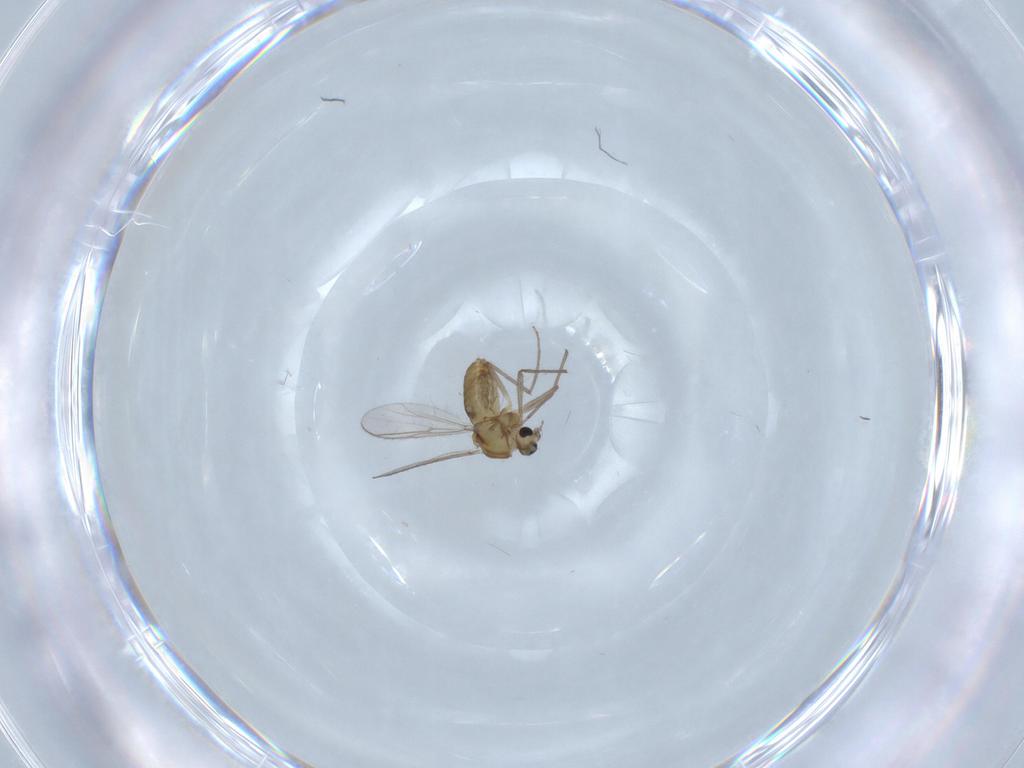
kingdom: Animalia
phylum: Arthropoda
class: Insecta
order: Diptera
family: Chironomidae
